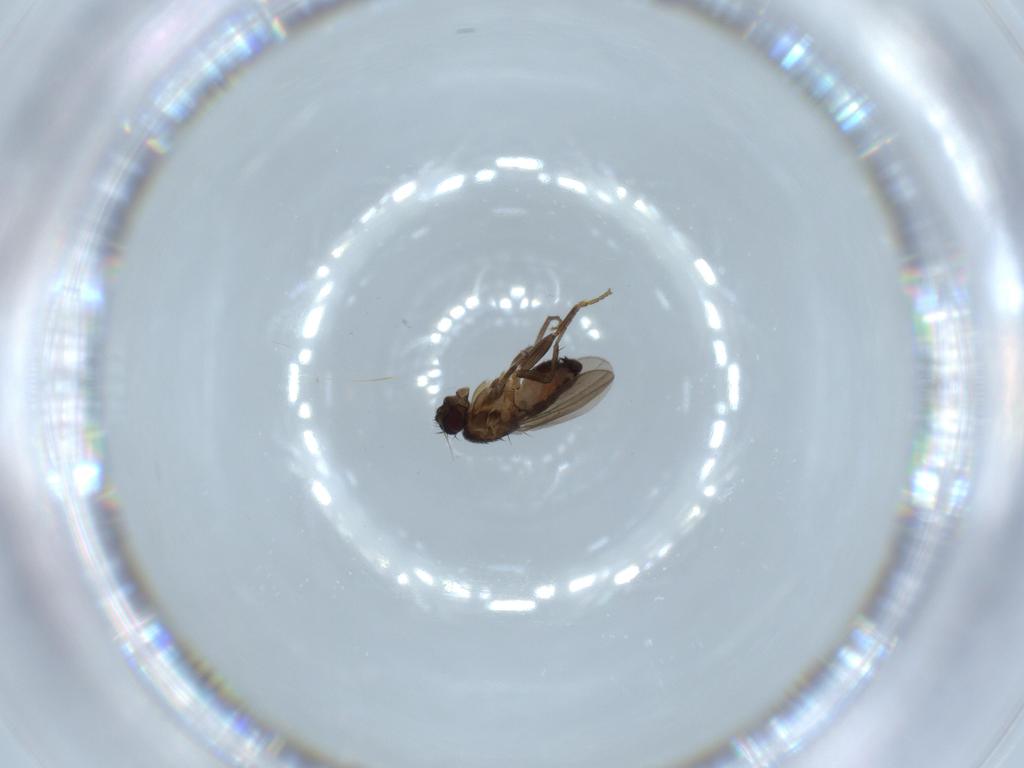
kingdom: Animalia
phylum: Arthropoda
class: Insecta
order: Diptera
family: Sphaeroceridae
